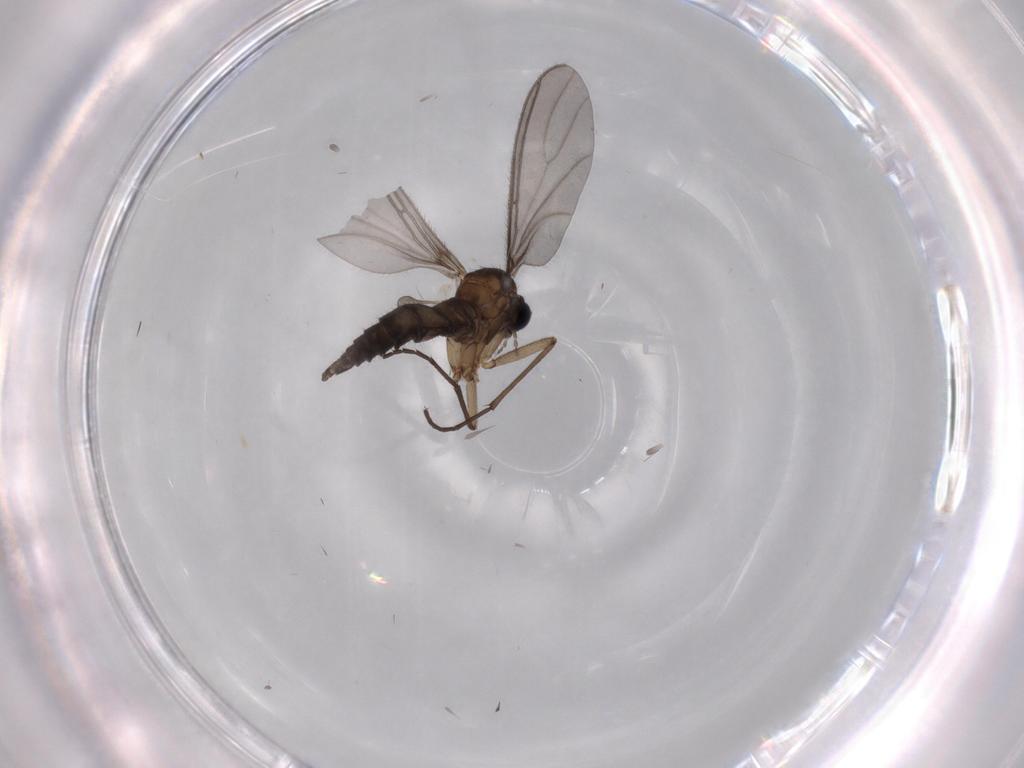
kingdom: Animalia
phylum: Arthropoda
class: Insecta
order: Diptera
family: Sciaridae
